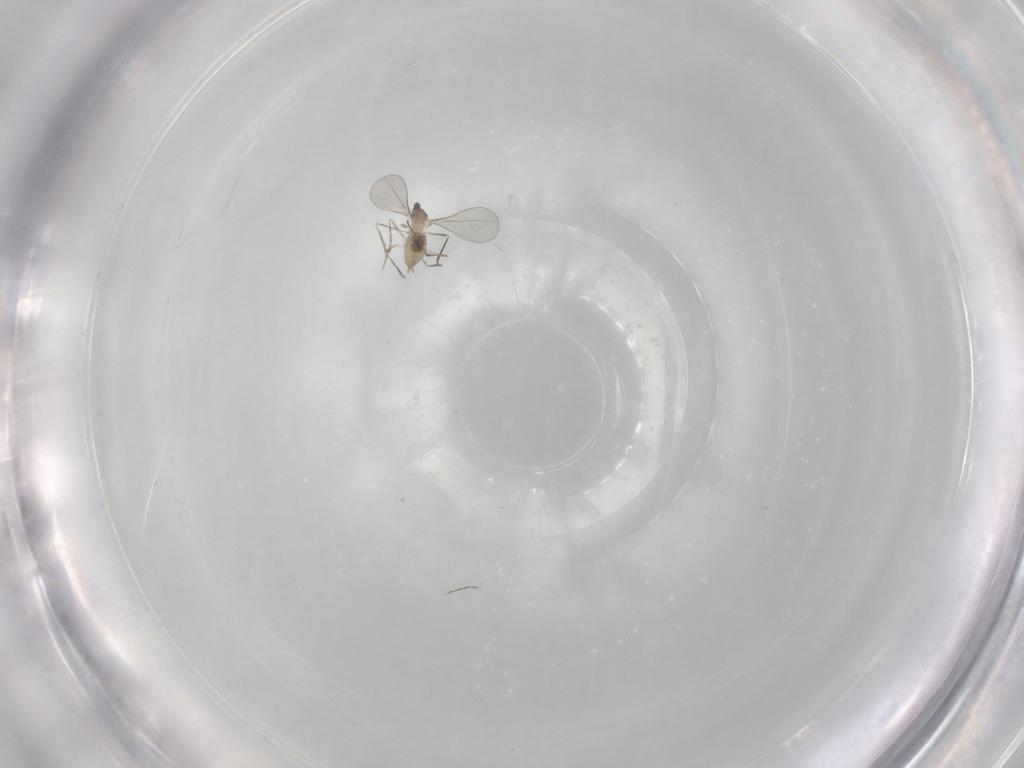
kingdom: Animalia
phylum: Arthropoda
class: Insecta
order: Diptera
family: Cecidomyiidae
